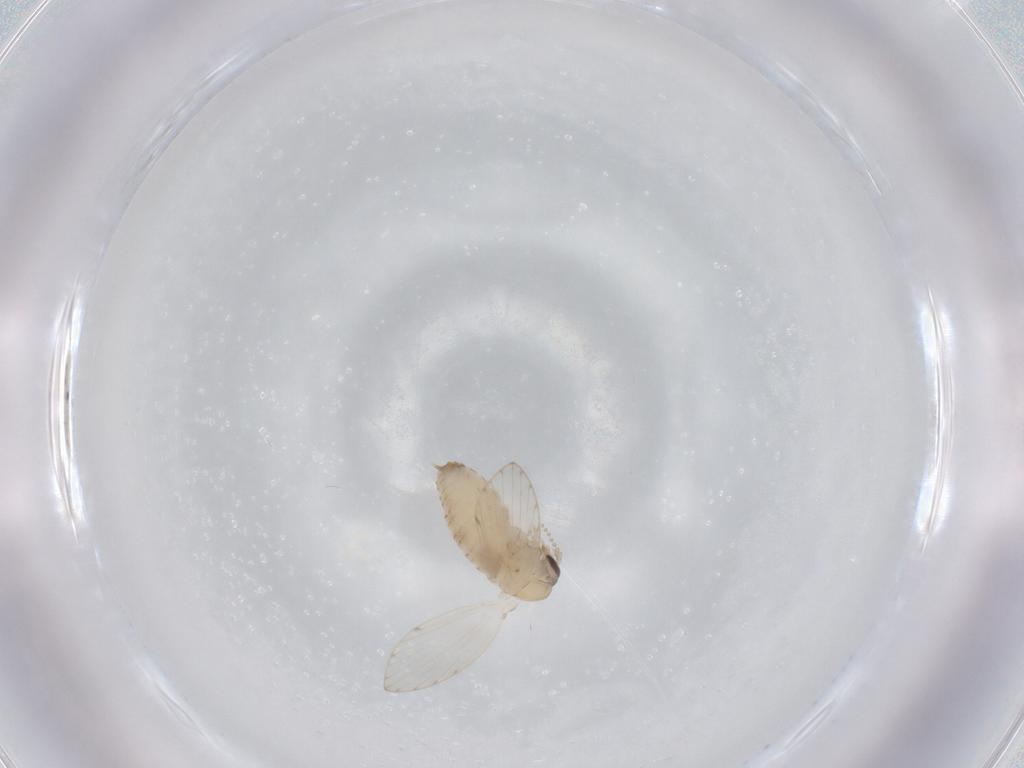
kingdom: Animalia
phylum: Arthropoda
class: Insecta
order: Diptera
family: Psychodidae
